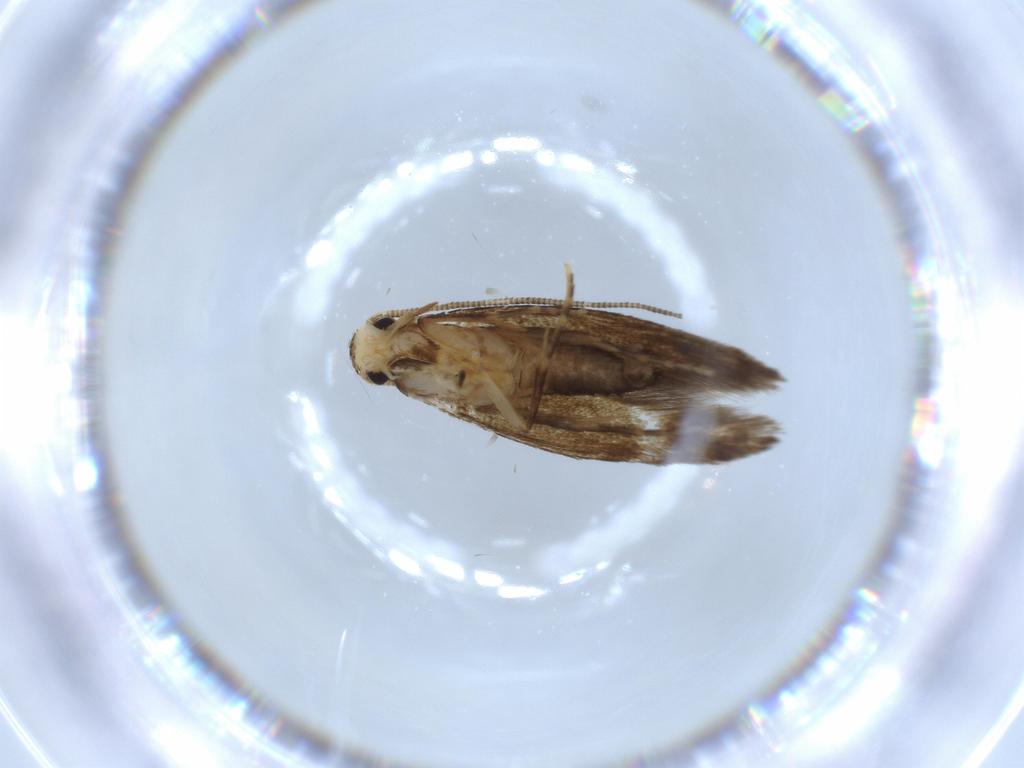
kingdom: Animalia
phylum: Arthropoda
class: Insecta
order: Lepidoptera
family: Tineidae
